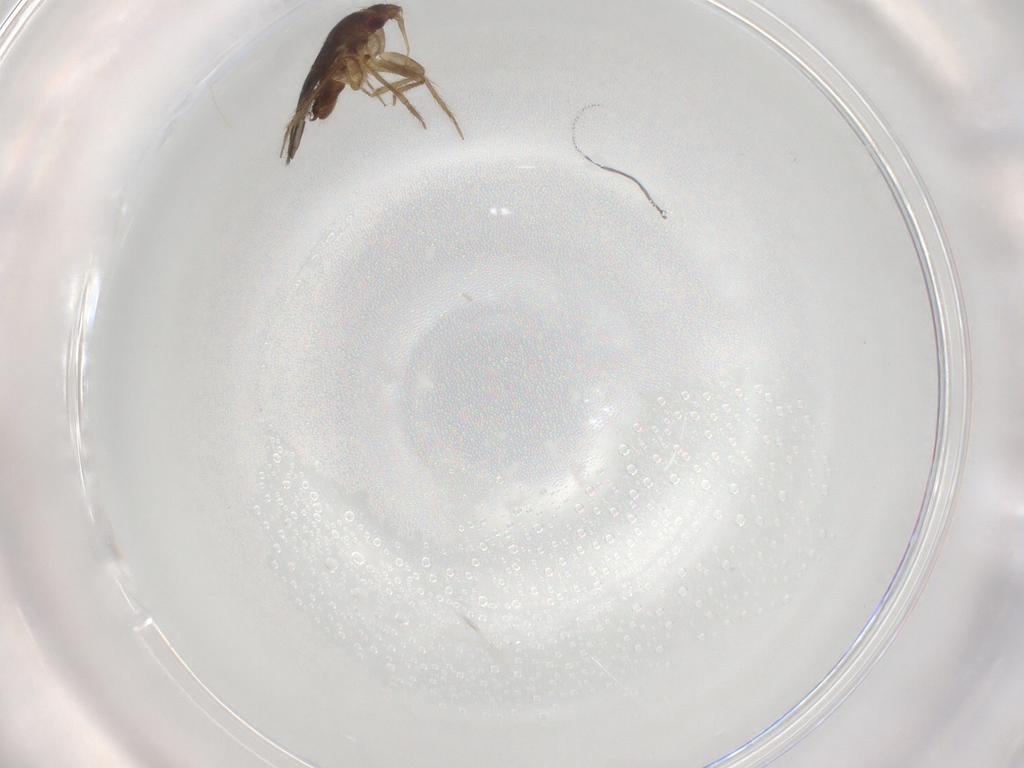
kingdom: Animalia
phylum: Arthropoda
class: Insecta
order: Hemiptera
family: Ceratocombidae
